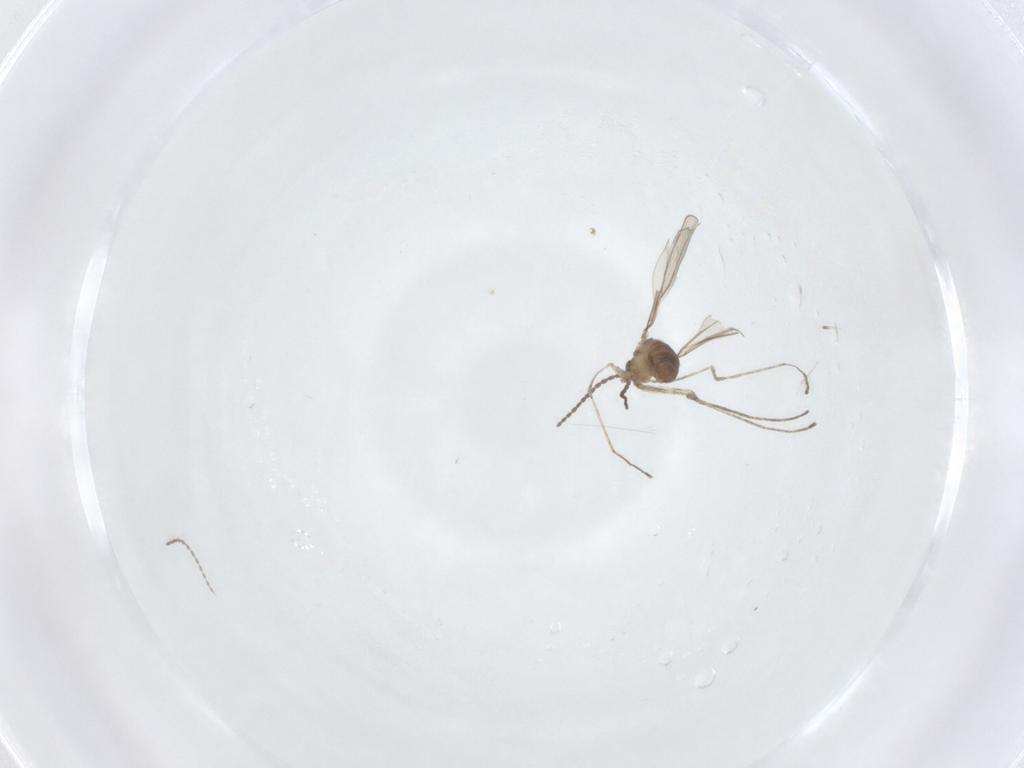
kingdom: Animalia
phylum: Arthropoda
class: Insecta
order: Diptera
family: Cecidomyiidae
